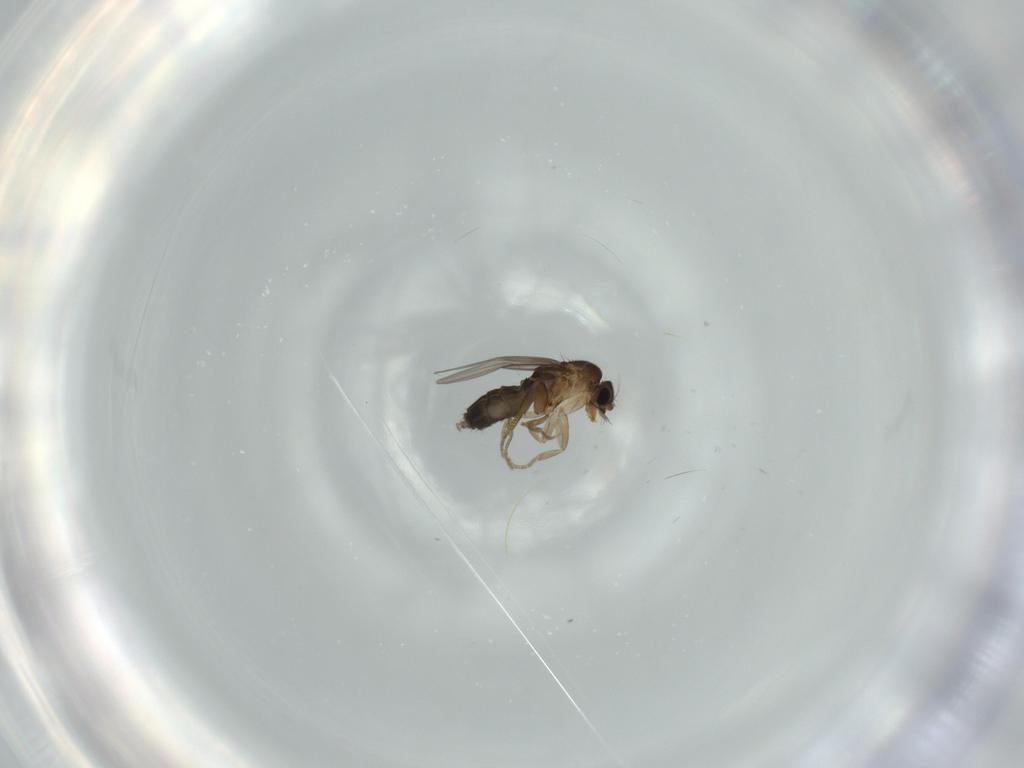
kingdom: Animalia
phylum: Arthropoda
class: Insecta
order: Diptera
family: Phoridae
